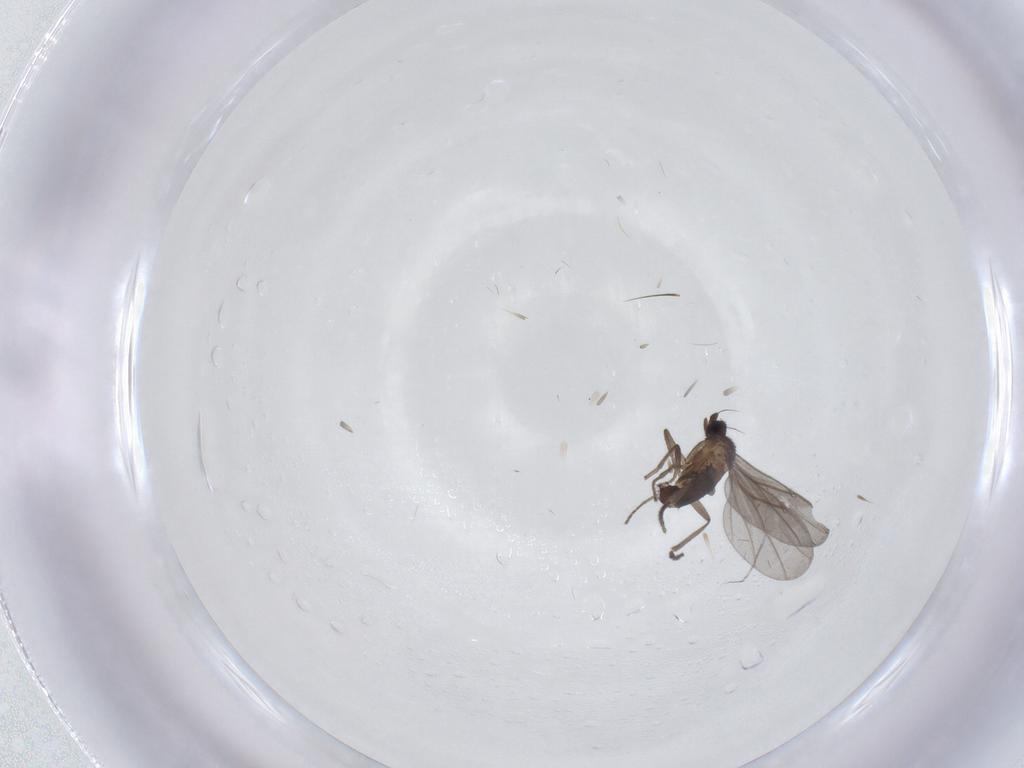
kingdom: Animalia
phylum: Arthropoda
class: Insecta
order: Diptera
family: Phoridae
